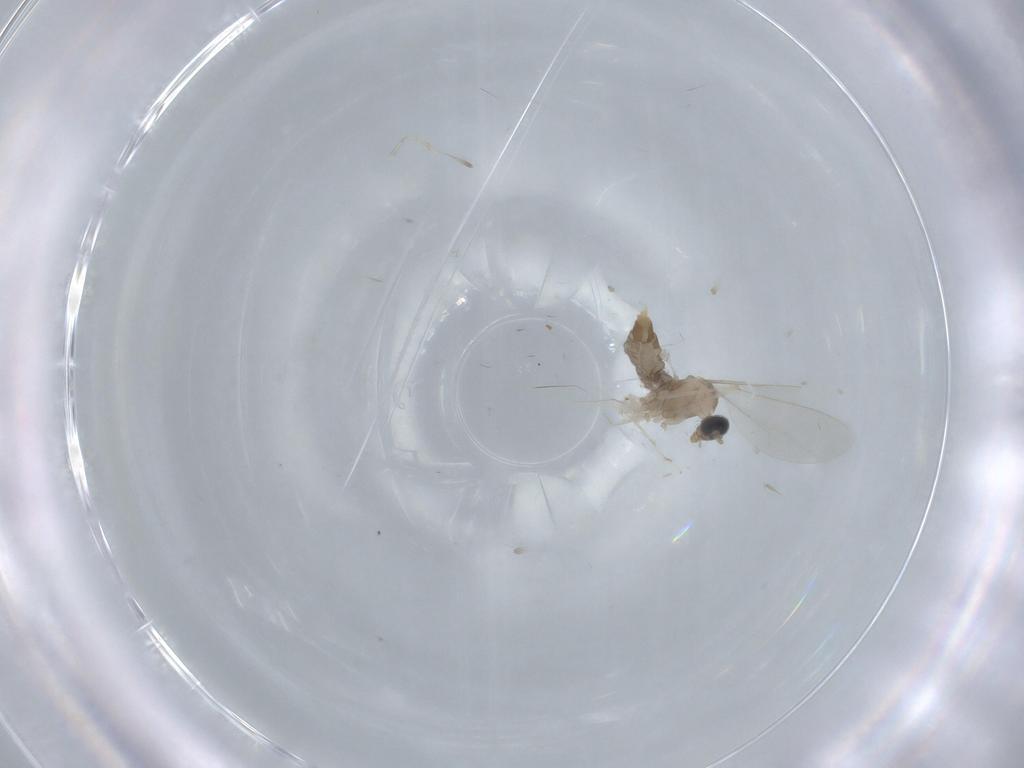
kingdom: Animalia
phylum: Arthropoda
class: Insecta
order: Diptera
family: Cecidomyiidae
